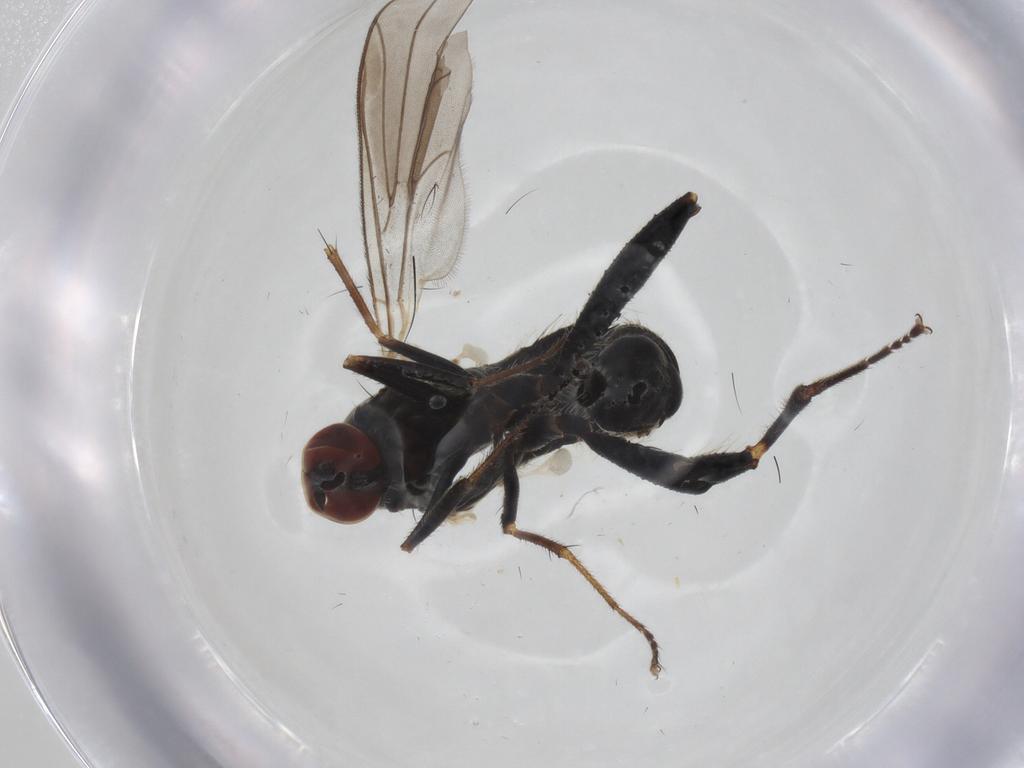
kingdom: Animalia
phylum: Arthropoda
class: Insecta
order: Diptera
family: Hybotidae
